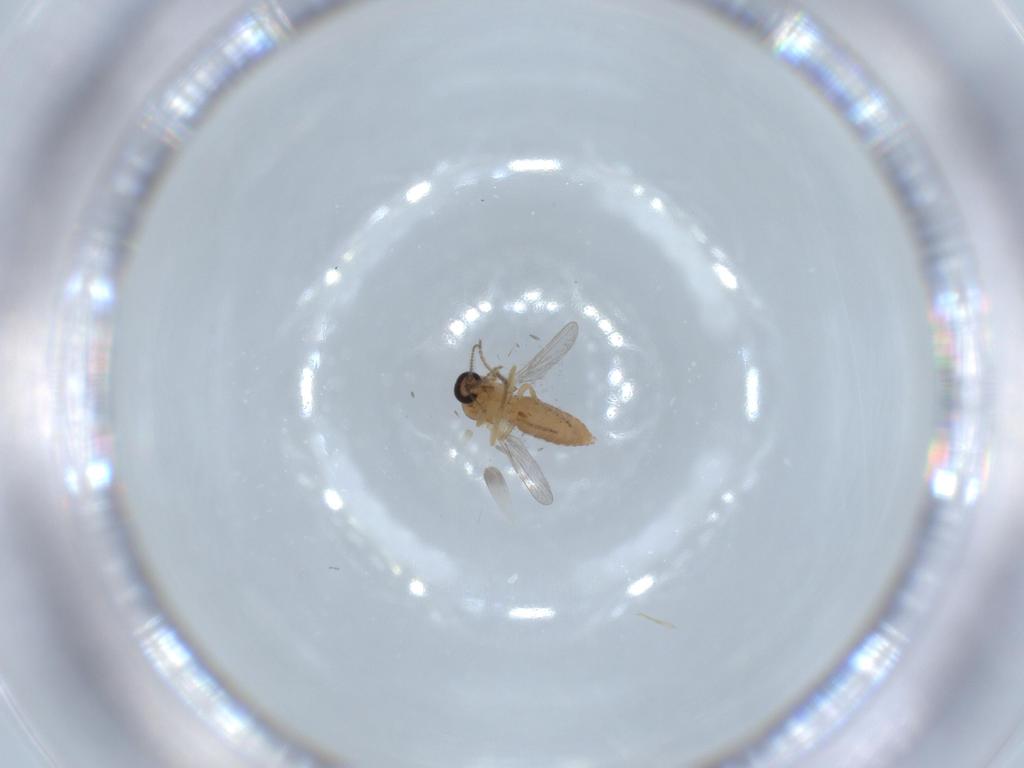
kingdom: Animalia
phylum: Arthropoda
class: Insecta
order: Diptera
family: Ceratopogonidae
